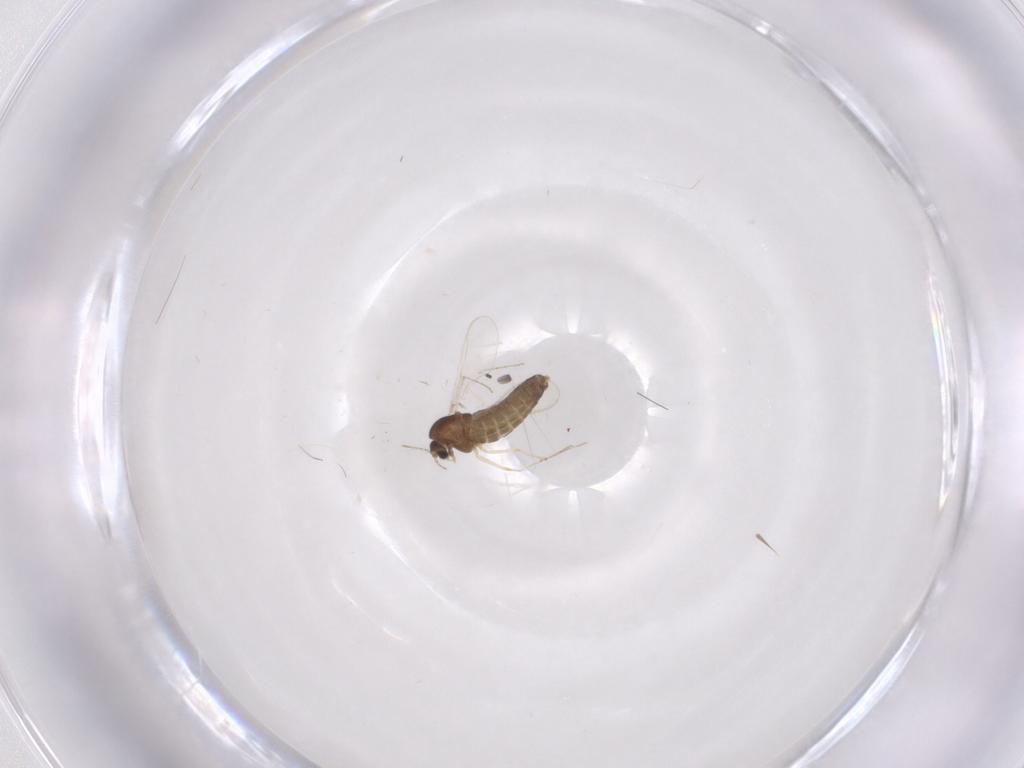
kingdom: Animalia
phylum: Arthropoda
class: Insecta
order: Diptera
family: Chironomidae
